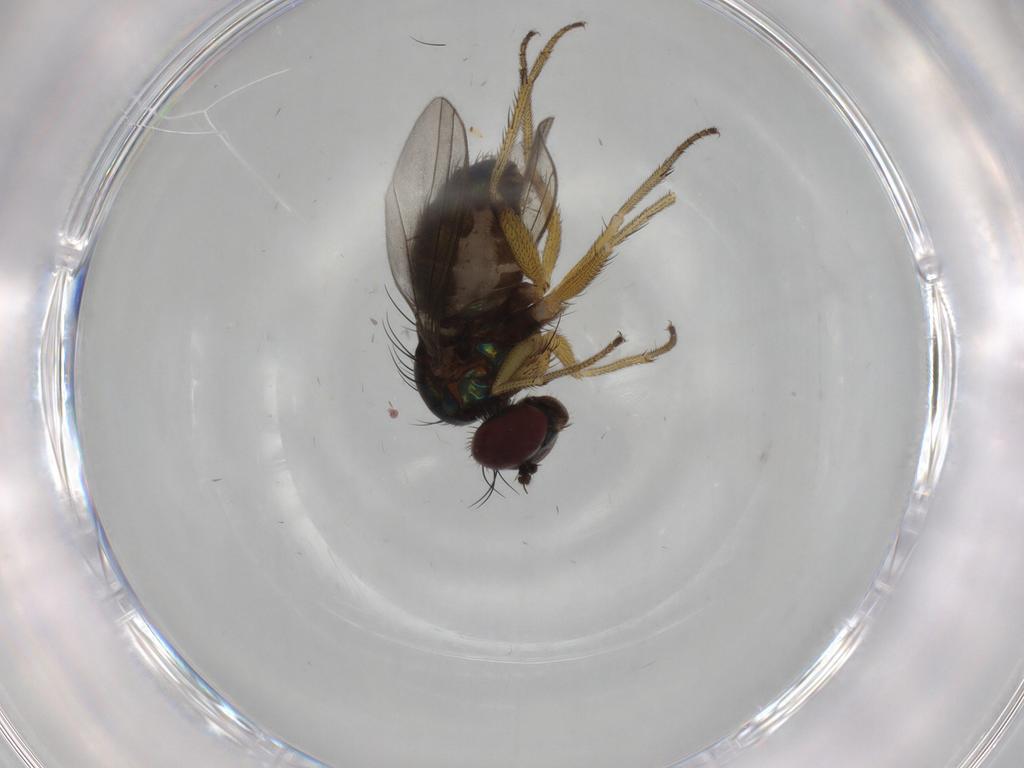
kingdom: Animalia
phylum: Arthropoda
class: Insecta
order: Diptera
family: Dolichopodidae
